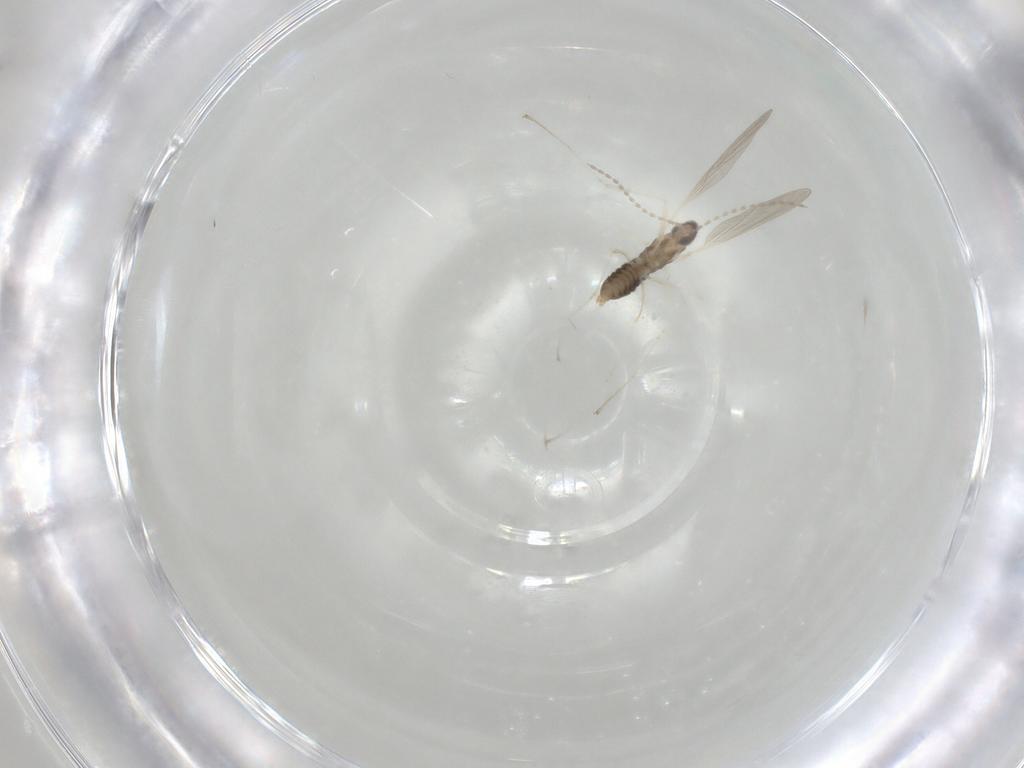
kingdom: Animalia
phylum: Arthropoda
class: Insecta
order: Diptera
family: Cecidomyiidae
